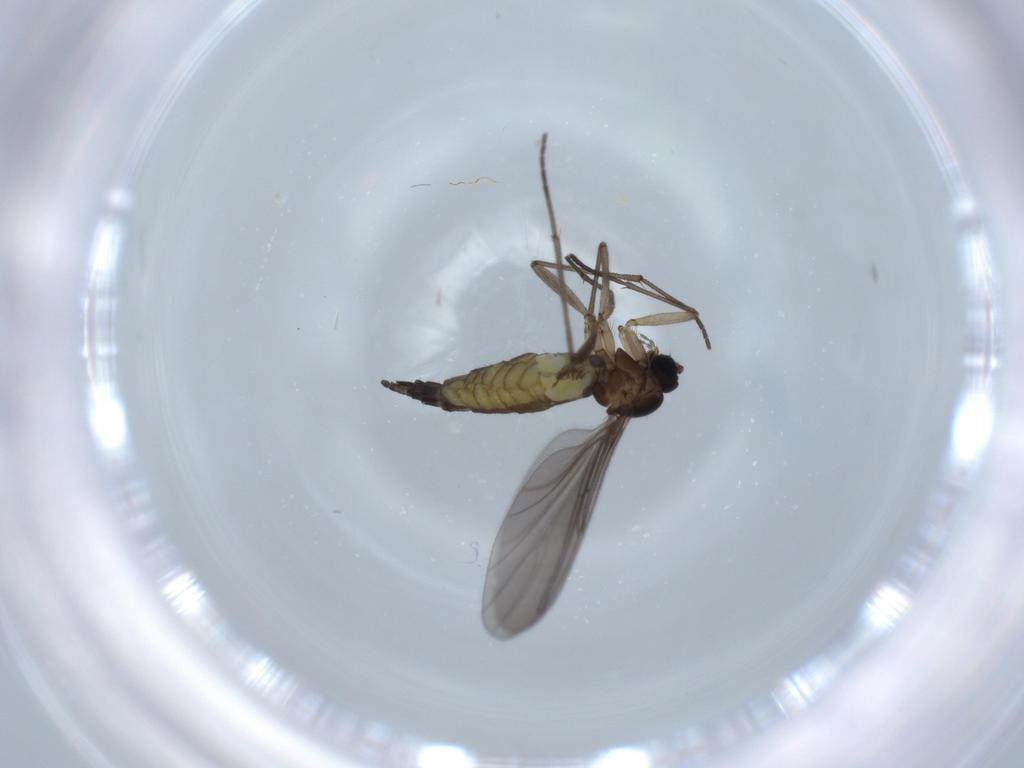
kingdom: Animalia
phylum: Arthropoda
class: Insecta
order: Diptera
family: Sciaridae
